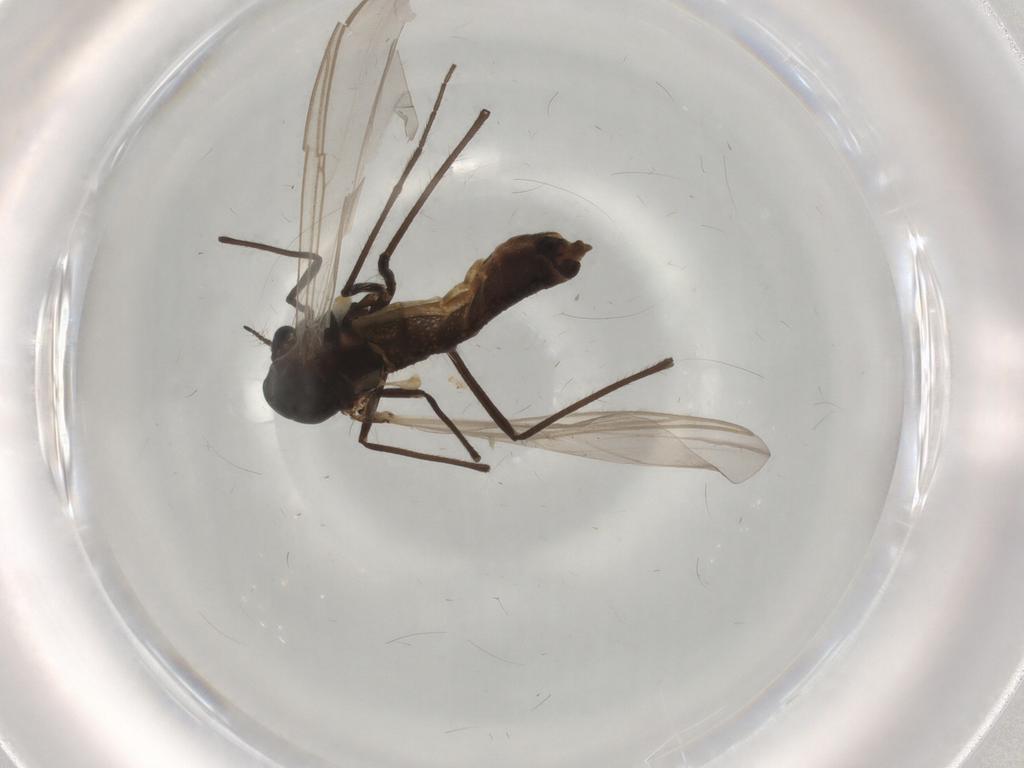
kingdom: Animalia
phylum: Arthropoda
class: Insecta
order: Diptera
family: Chironomidae
